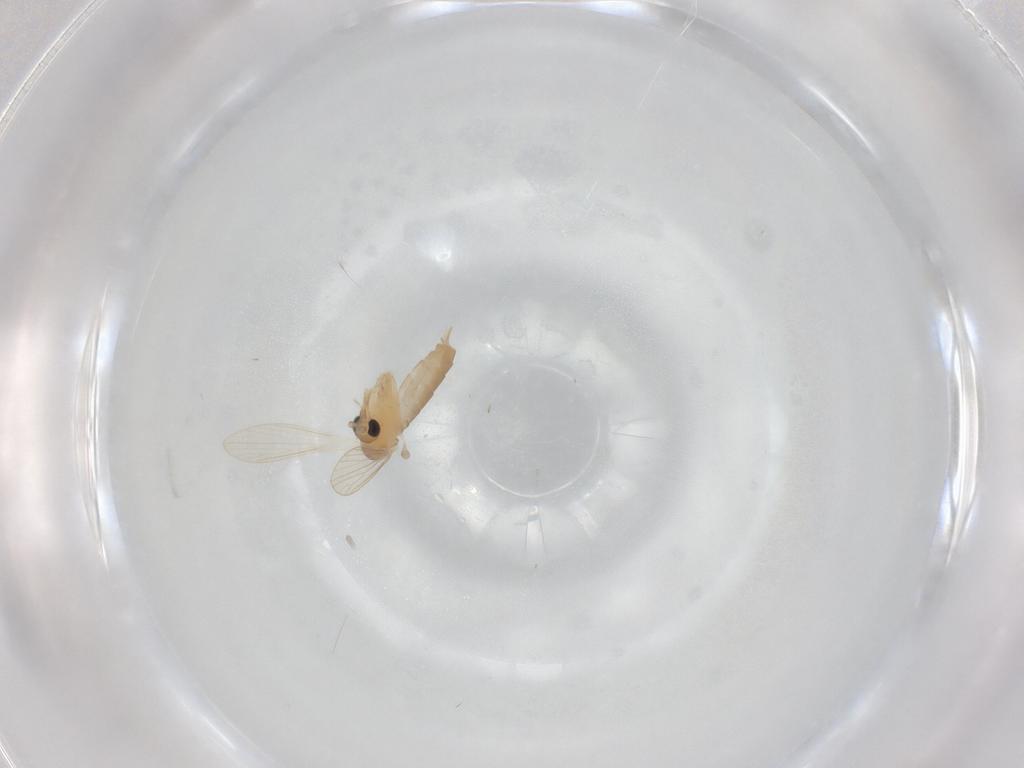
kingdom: Animalia
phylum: Arthropoda
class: Insecta
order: Diptera
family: Psychodidae
